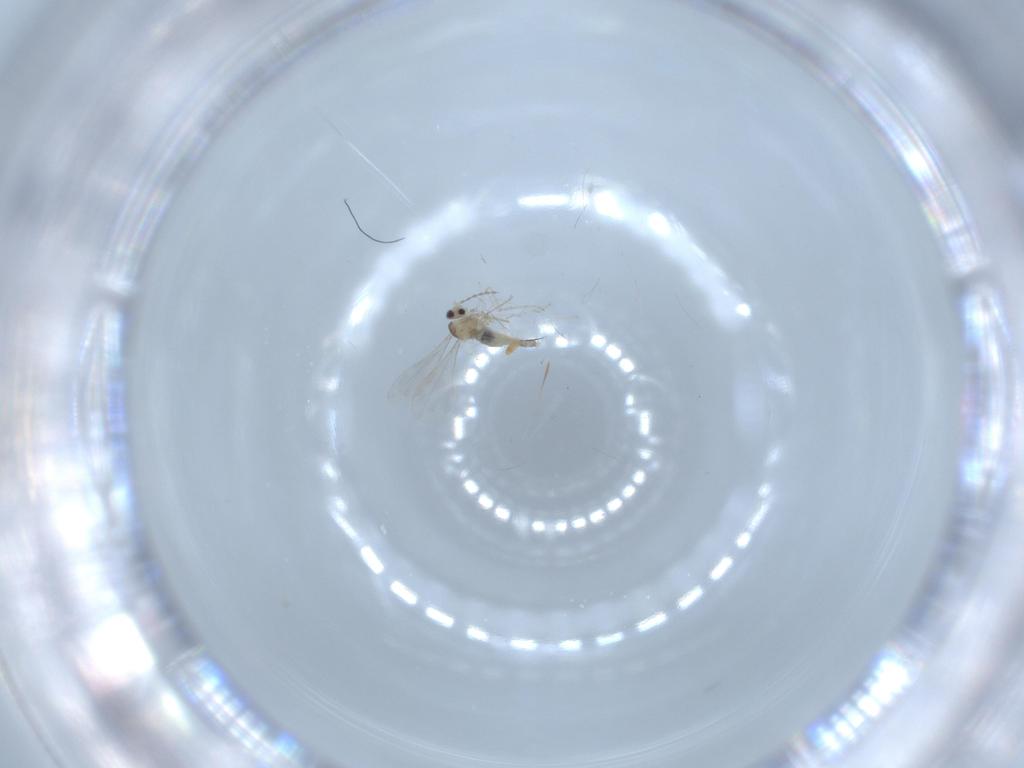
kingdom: Animalia
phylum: Arthropoda
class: Insecta
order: Diptera
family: Cecidomyiidae
